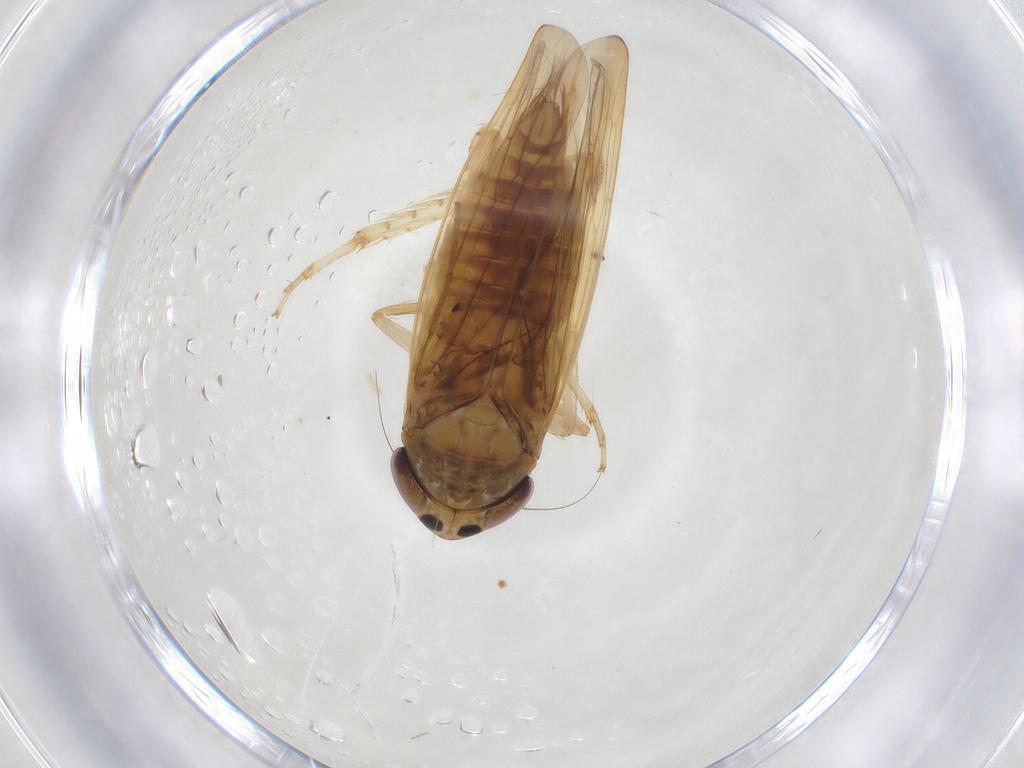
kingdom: Animalia
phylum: Arthropoda
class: Insecta
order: Hemiptera
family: Cicadellidae
